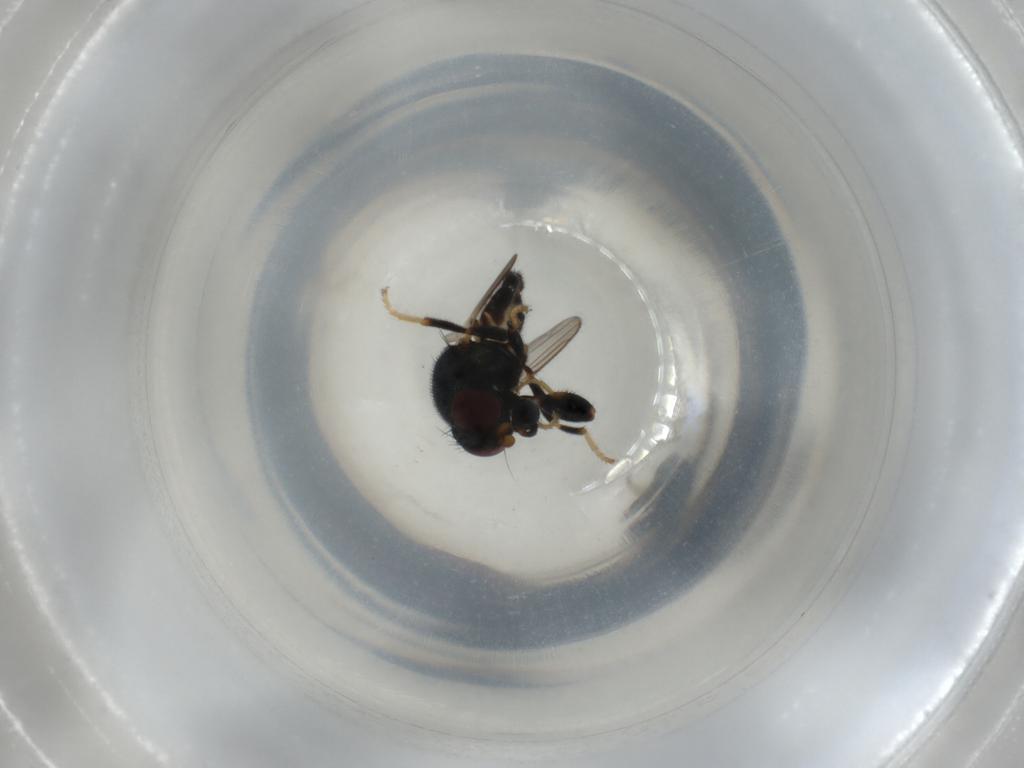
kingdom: Animalia
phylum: Arthropoda
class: Insecta
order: Diptera
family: Chloropidae
